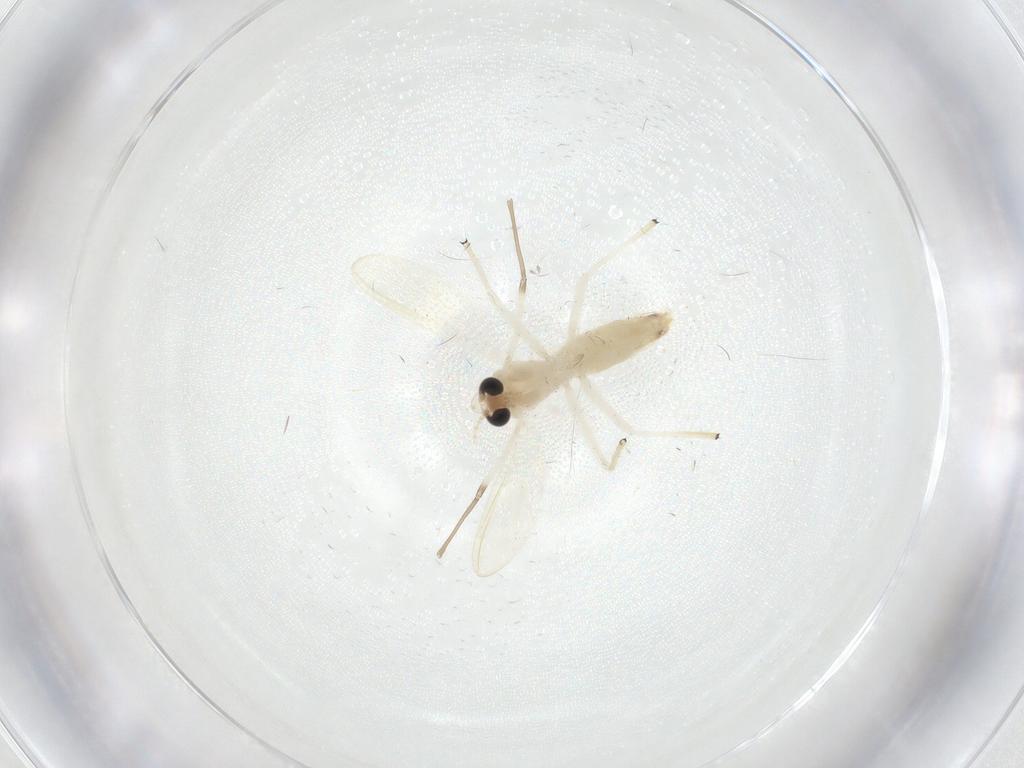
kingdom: Animalia
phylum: Arthropoda
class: Insecta
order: Diptera
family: Chironomidae
